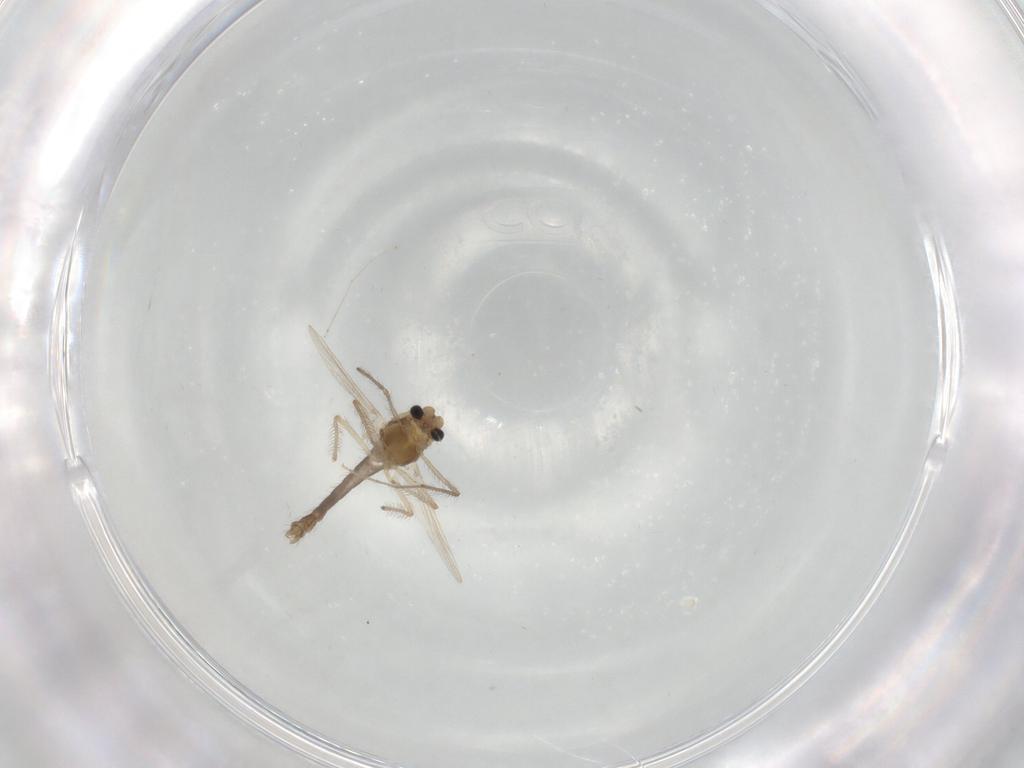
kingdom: Animalia
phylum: Arthropoda
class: Insecta
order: Diptera
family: Chironomidae
